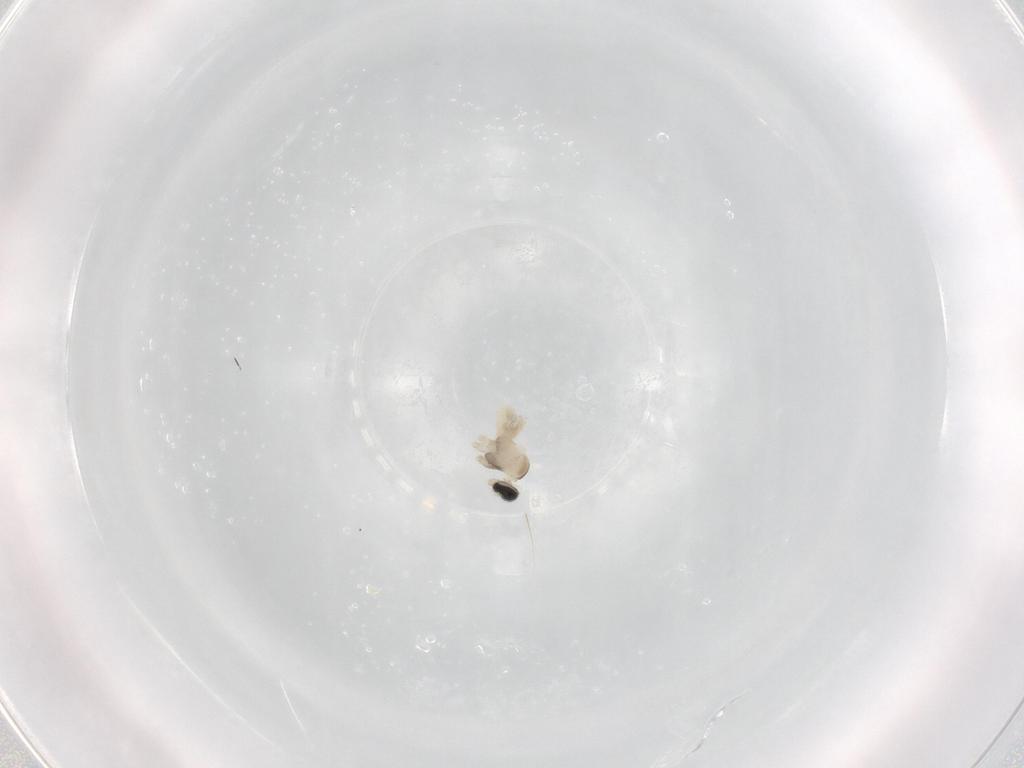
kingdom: Animalia
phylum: Arthropoda
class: Insecta
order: Diptera
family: Cecidomyiidae
